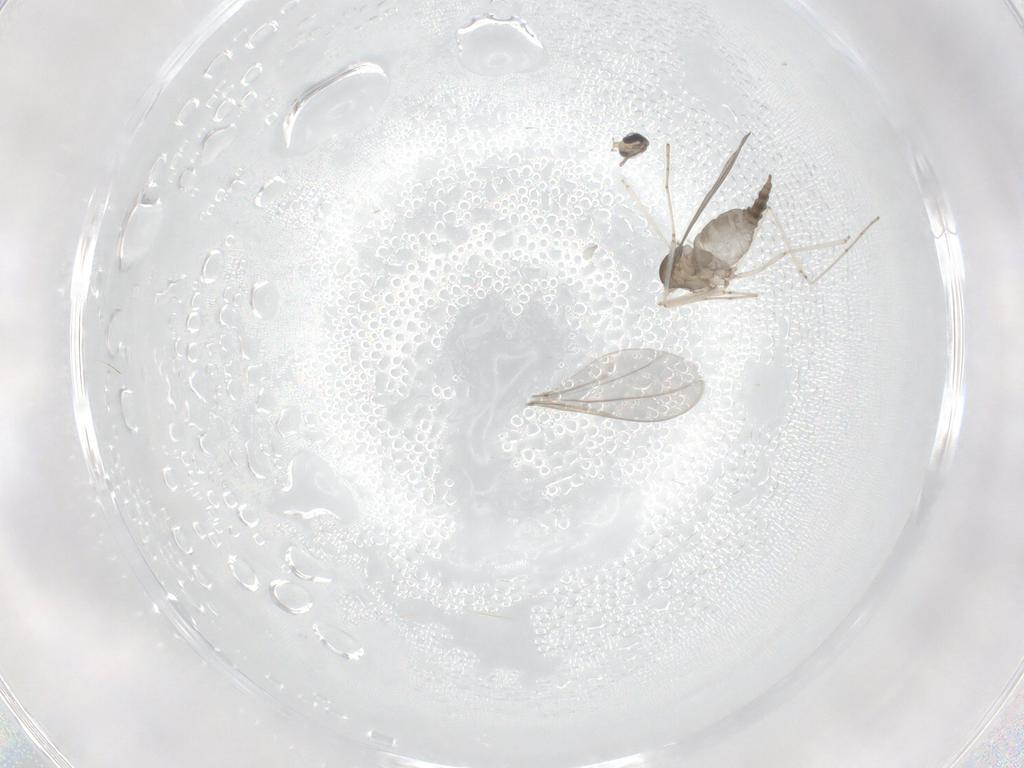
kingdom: Animalia
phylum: Arthropoda
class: Insecta
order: Diptera
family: Cecidomyiidae
